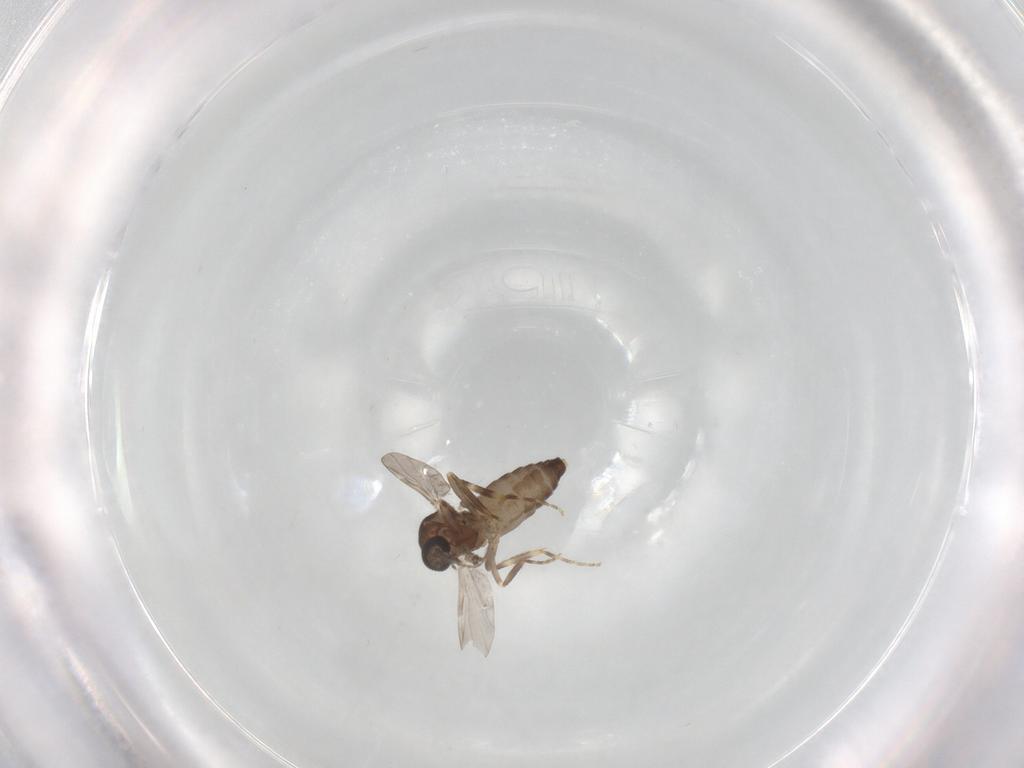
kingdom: Animalia
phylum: Arthropoda
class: Insecta
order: Diptera
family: Ceratopogonidae
